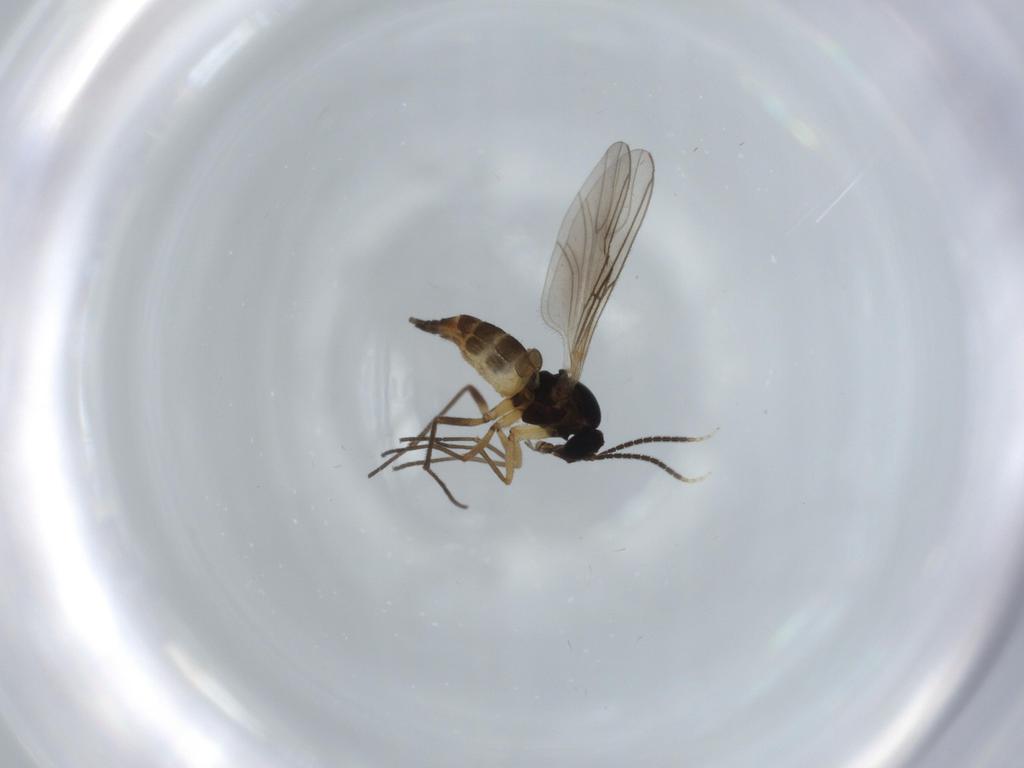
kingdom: Animalia
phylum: Arthropoda
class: Insecta
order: Diptera
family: Sciaridae
